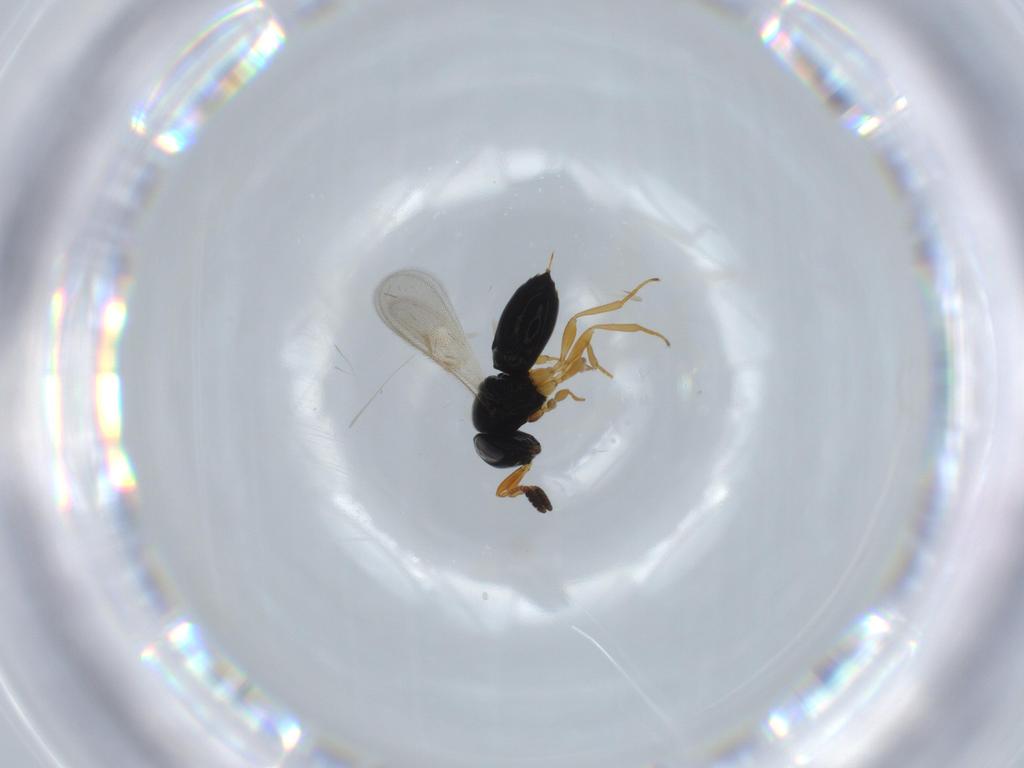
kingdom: Animalia
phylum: Arthropoda
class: Insecta
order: Hymenoptera
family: Scelionidae
